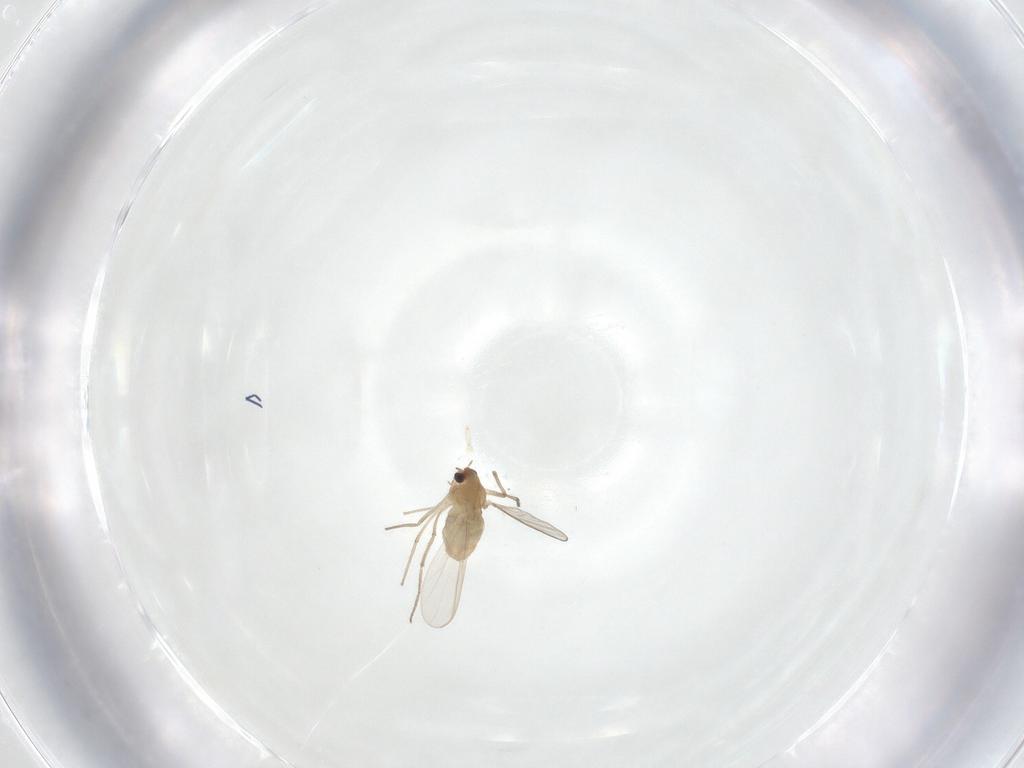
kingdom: Animalia
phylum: Arthropoda
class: Insecta
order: Diptera
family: Chironomidae
